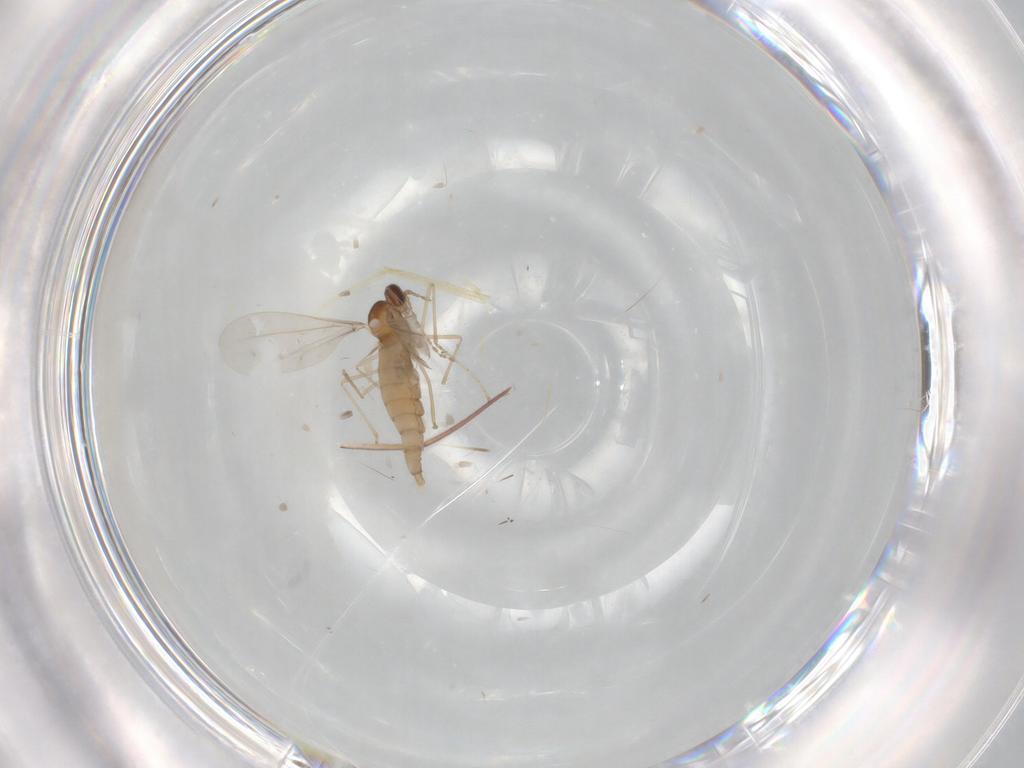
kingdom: Animalia
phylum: Arthropoda
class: Insecta
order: Diptera
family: Cecidomyiidae
